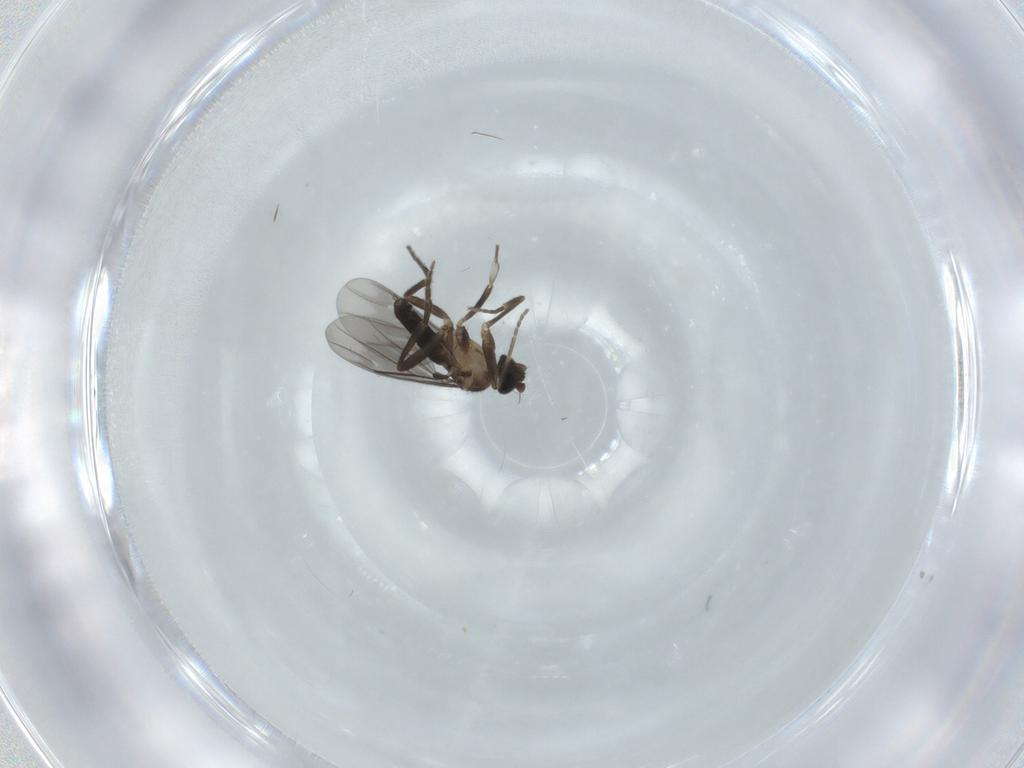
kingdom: Animalia
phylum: Arthropoda
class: Insecta
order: Diptera
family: Phoridae
